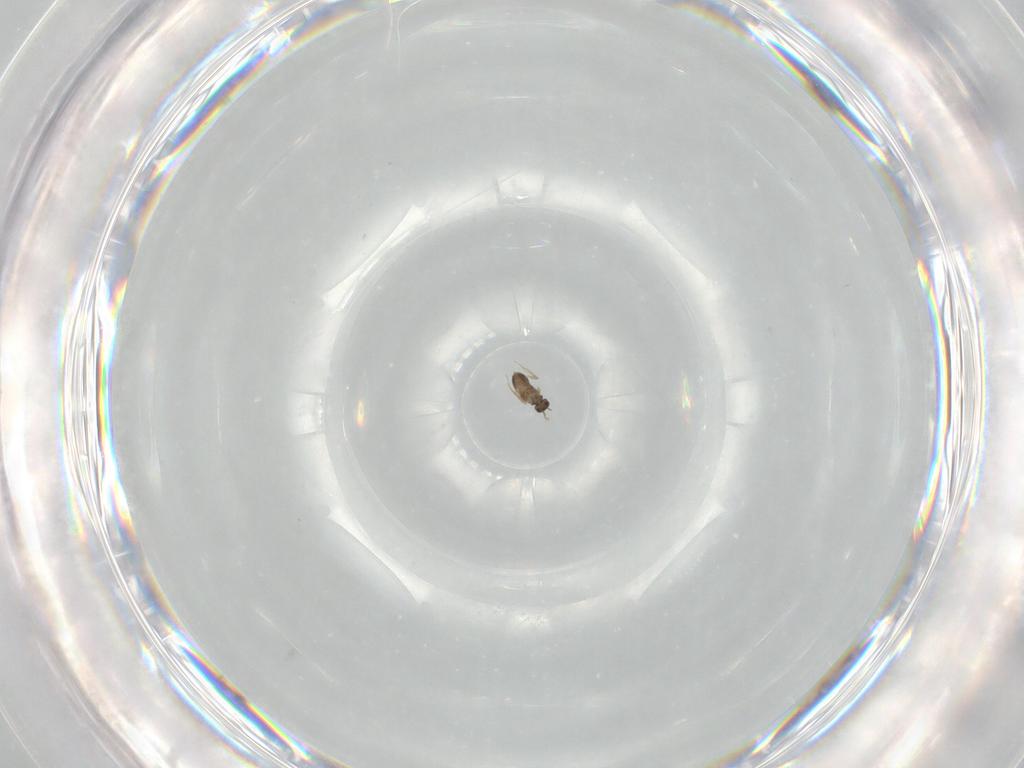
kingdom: Animalia
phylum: Arthropoda
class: Insecta
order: Hymenoptera
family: Mymaridae
